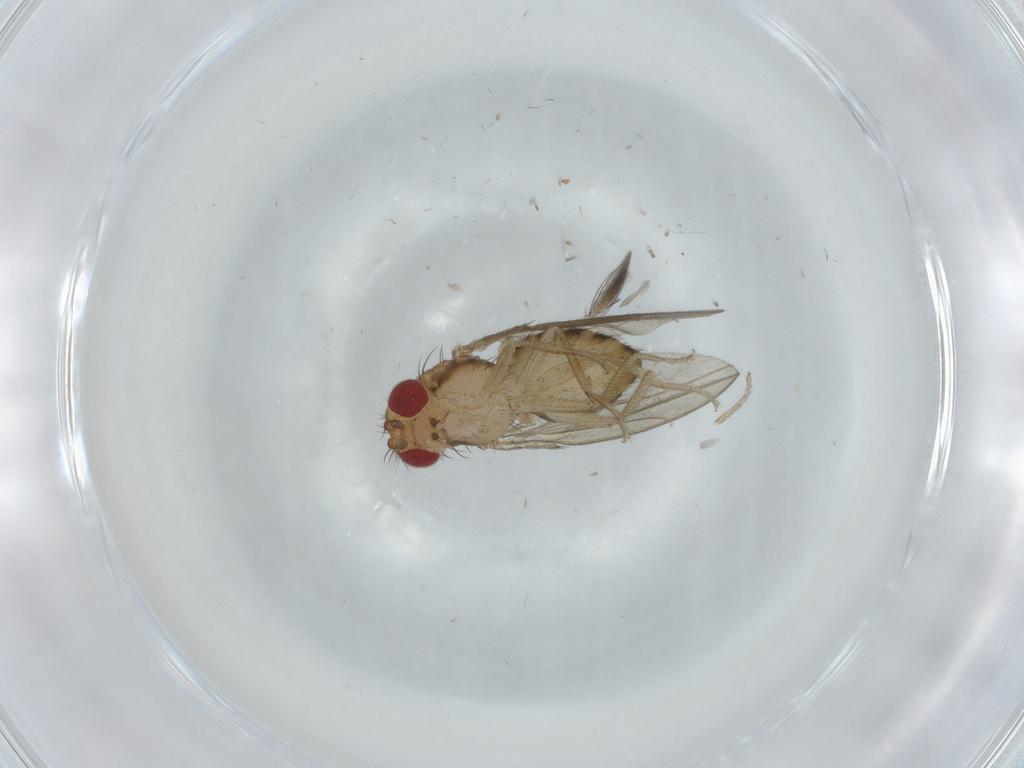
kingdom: Animalia
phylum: Arthropoda
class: Insecta
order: Diptera
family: Drosophilidae
